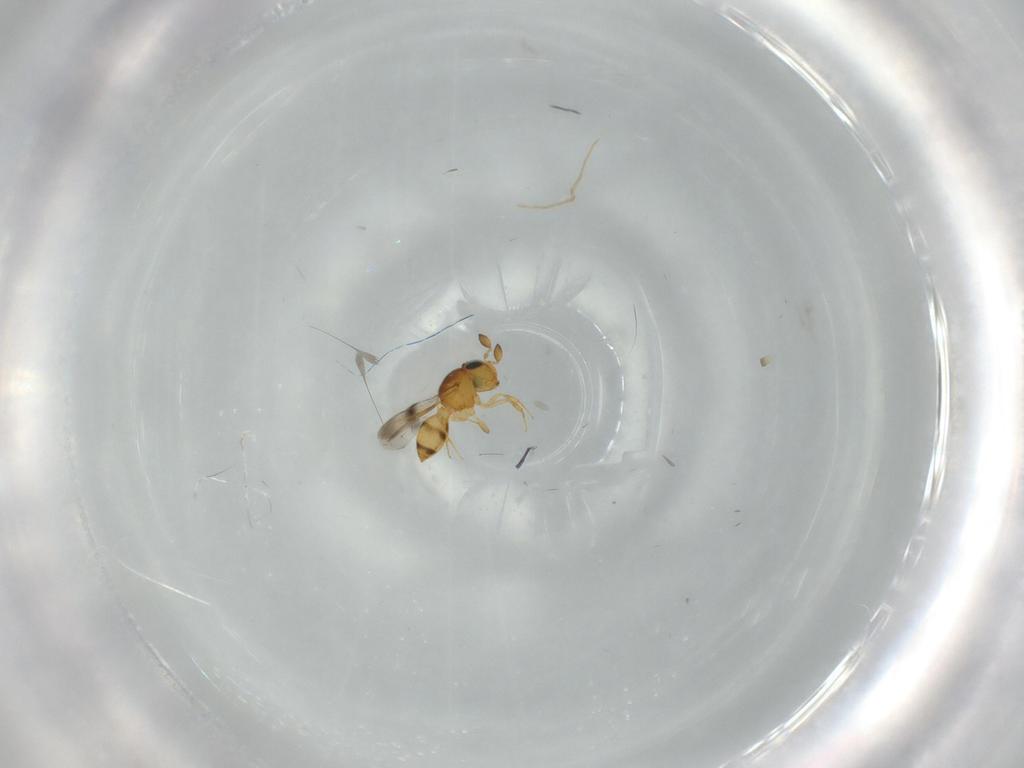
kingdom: Animalia
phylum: Arthropoda
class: Insecta
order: Hymenoptera
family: Scelionidae
